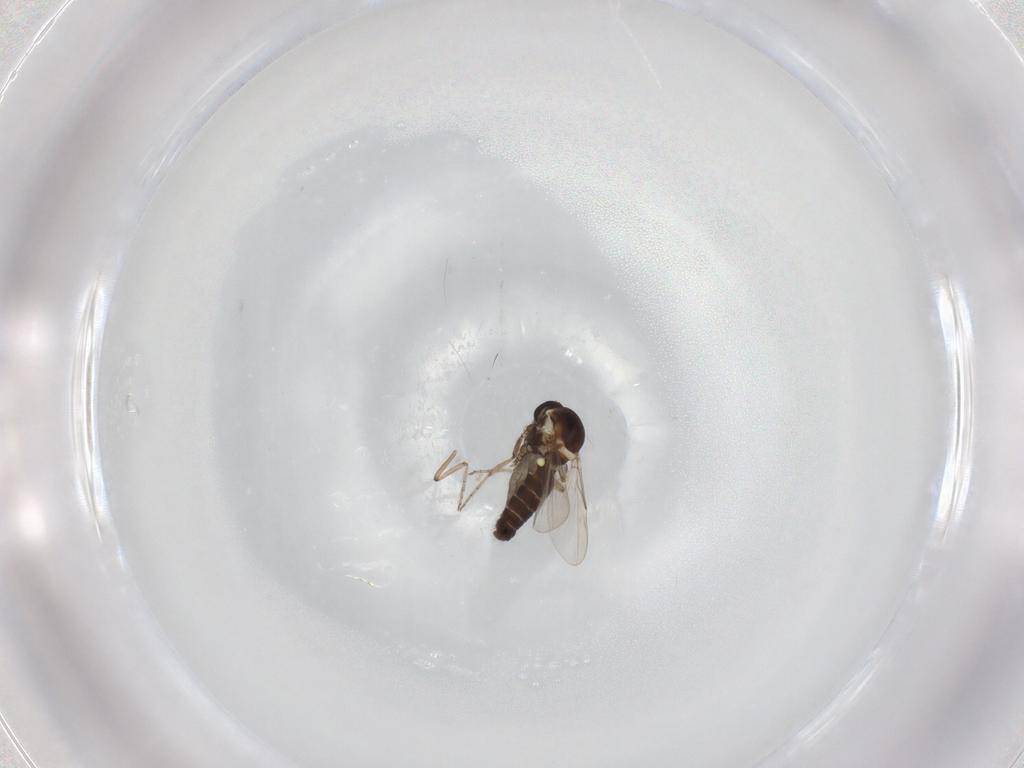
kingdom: Animalia
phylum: Arthropoda
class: Insecta
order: Diptera
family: Ceratopogonidae
